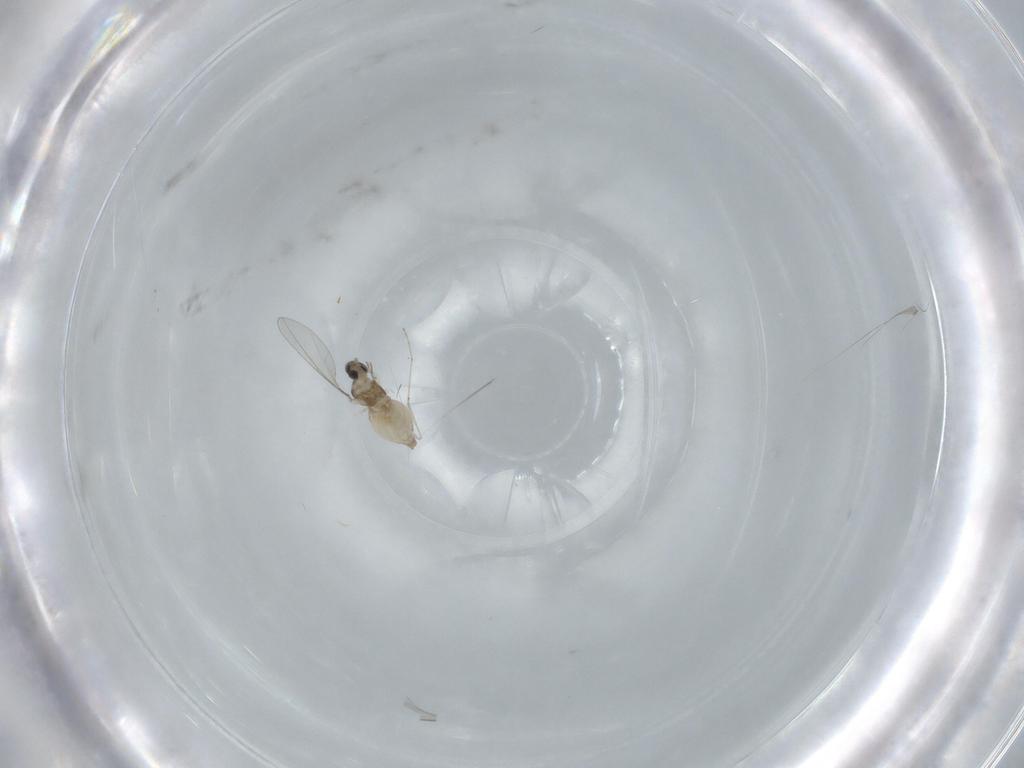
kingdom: Animalia
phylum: Arthropoda
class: Insecta
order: Diptera
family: Cecidomyiidae
